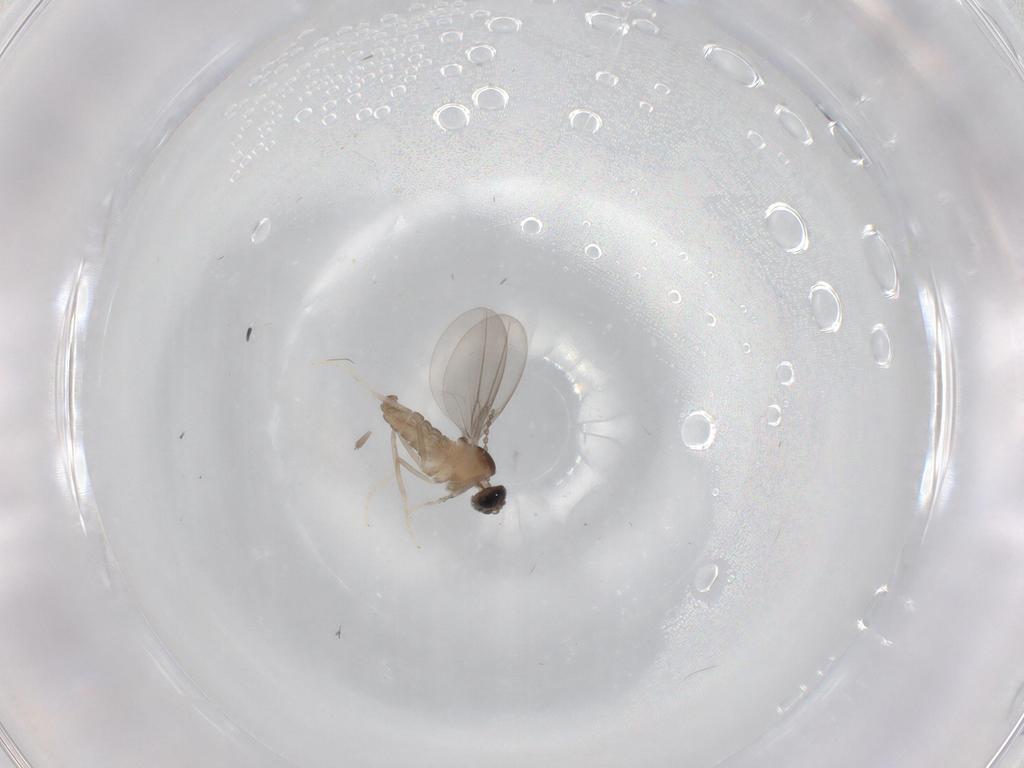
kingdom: Animalia
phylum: Arthropoda
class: Insecta
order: Diptera
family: Cecidomyiidae
